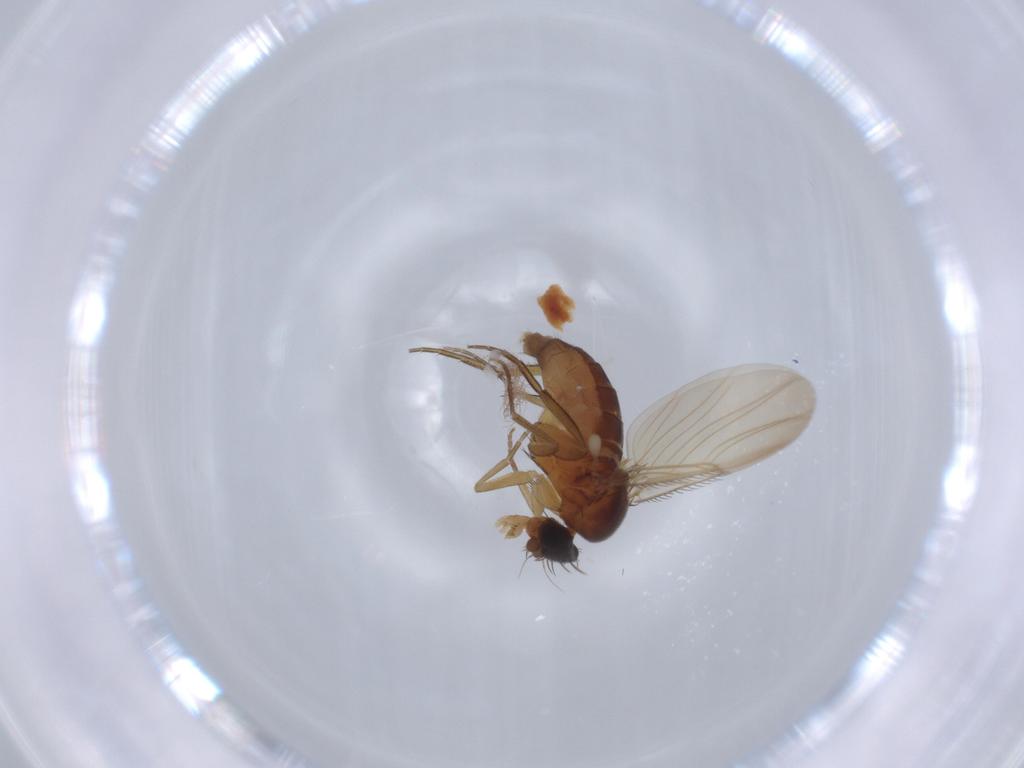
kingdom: Animalia
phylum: Arthropoda
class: Insecta
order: Diptera
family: Phoridae
